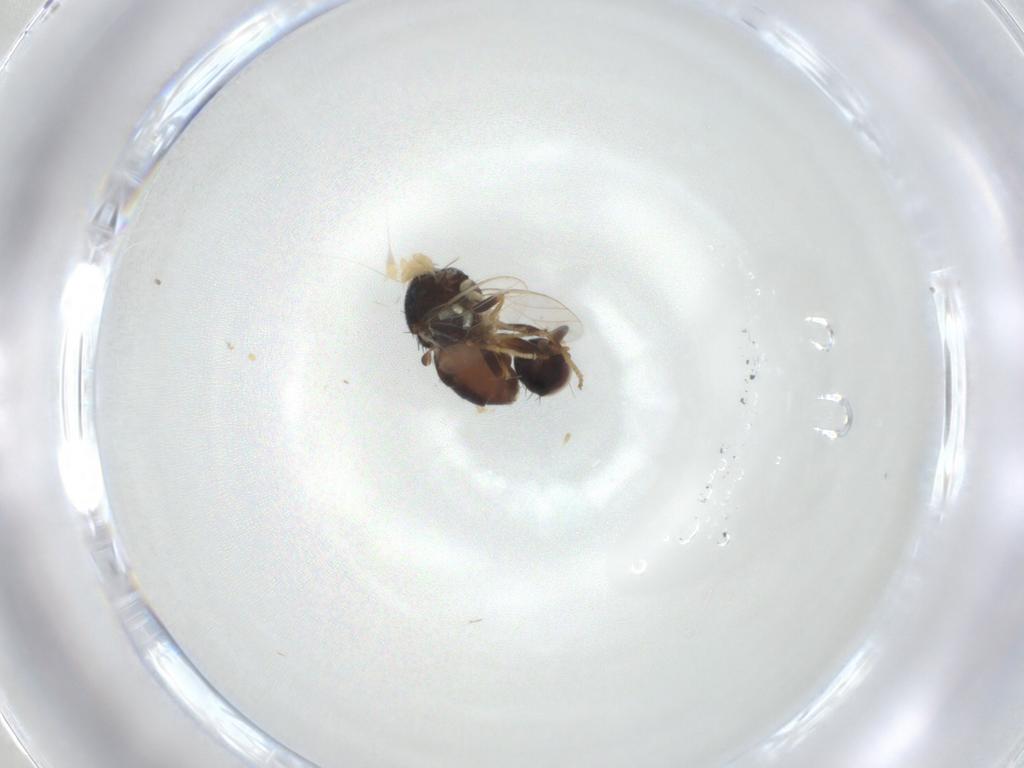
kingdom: Animalia
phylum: Arthropoda
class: Insecta
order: Diptera
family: Chloropidae
